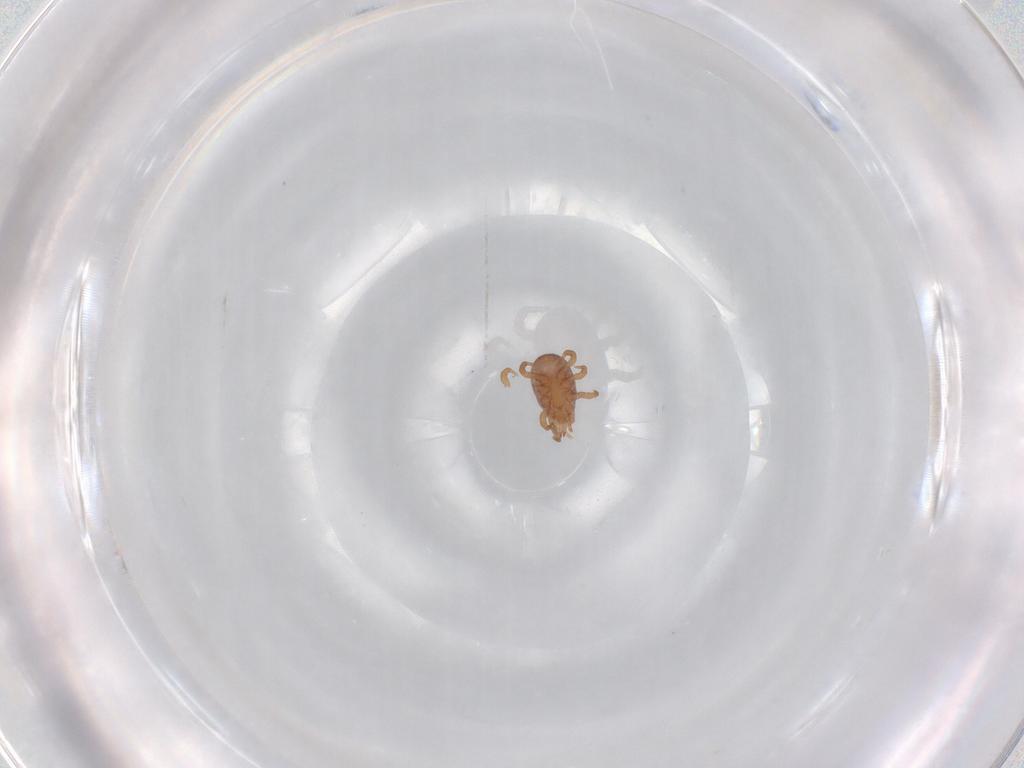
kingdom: Animalia
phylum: Arthropoda
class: Arachnida
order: Mesostigmata
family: Eviphididae
